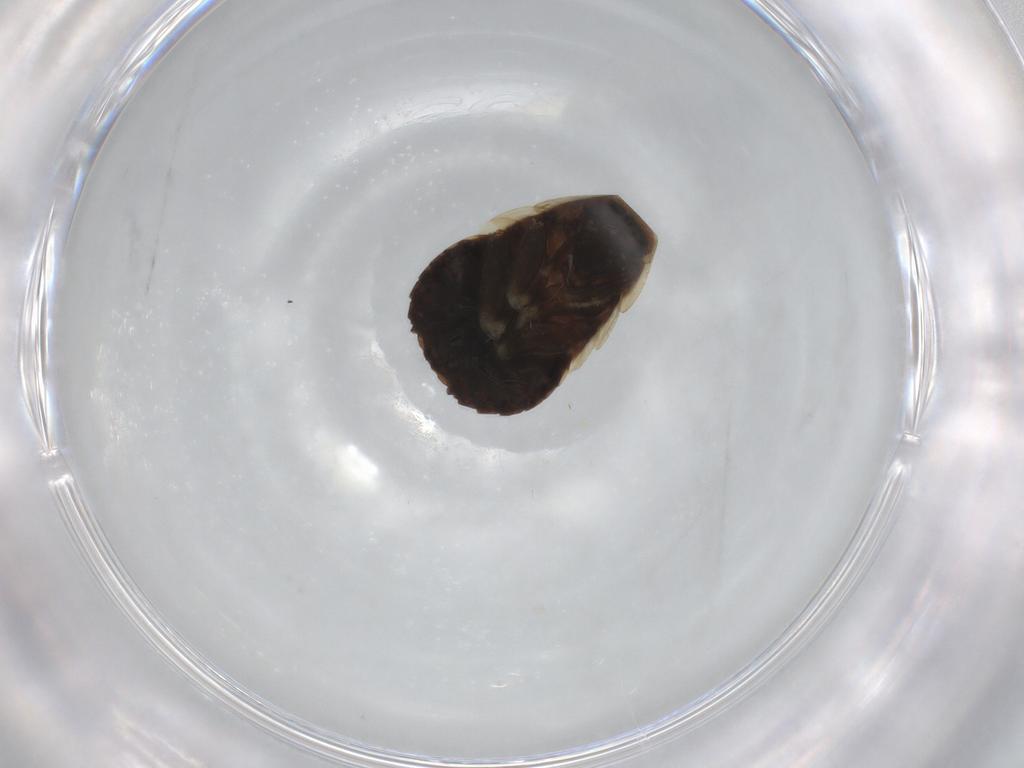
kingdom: Animalia
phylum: Arthropoda
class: Insecta
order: Blattodea
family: Ectobiidae
